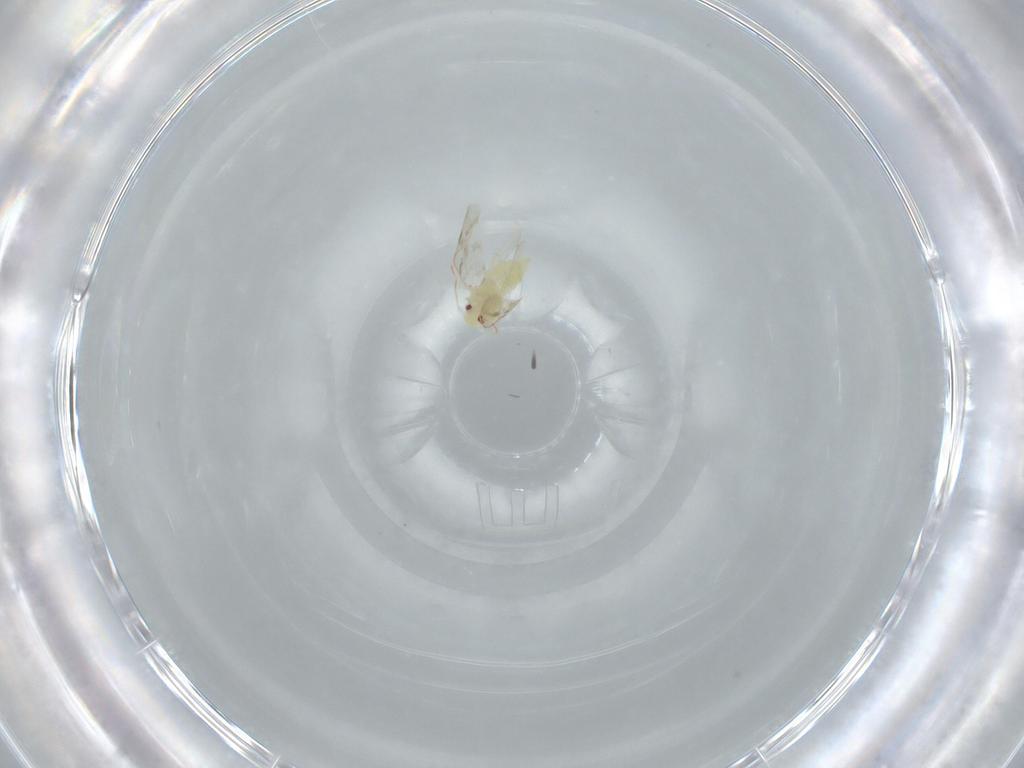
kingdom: Animalia
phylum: Arthropoda
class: Insecta
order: Hemiptera
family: Aleyrodidae
